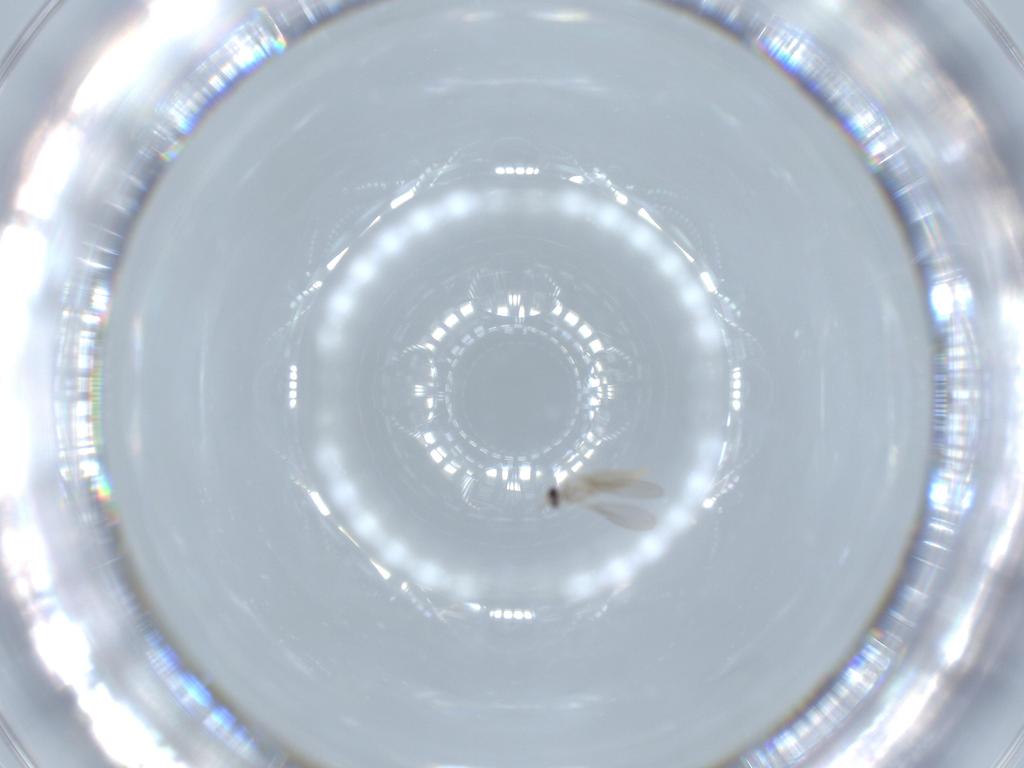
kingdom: Animalia
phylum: Arthropoda
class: Insecta
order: Diptera
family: Cecidomyiidae
